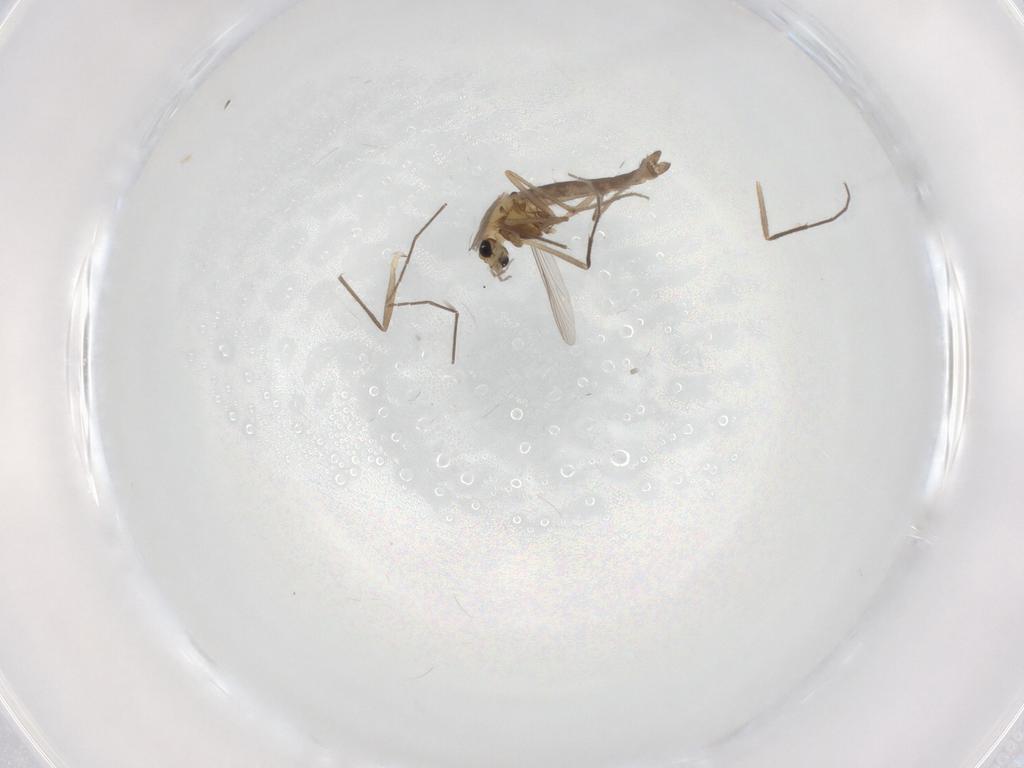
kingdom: Animalia
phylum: Arthropoda
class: Insecta
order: Diptera
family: Chironomidae
